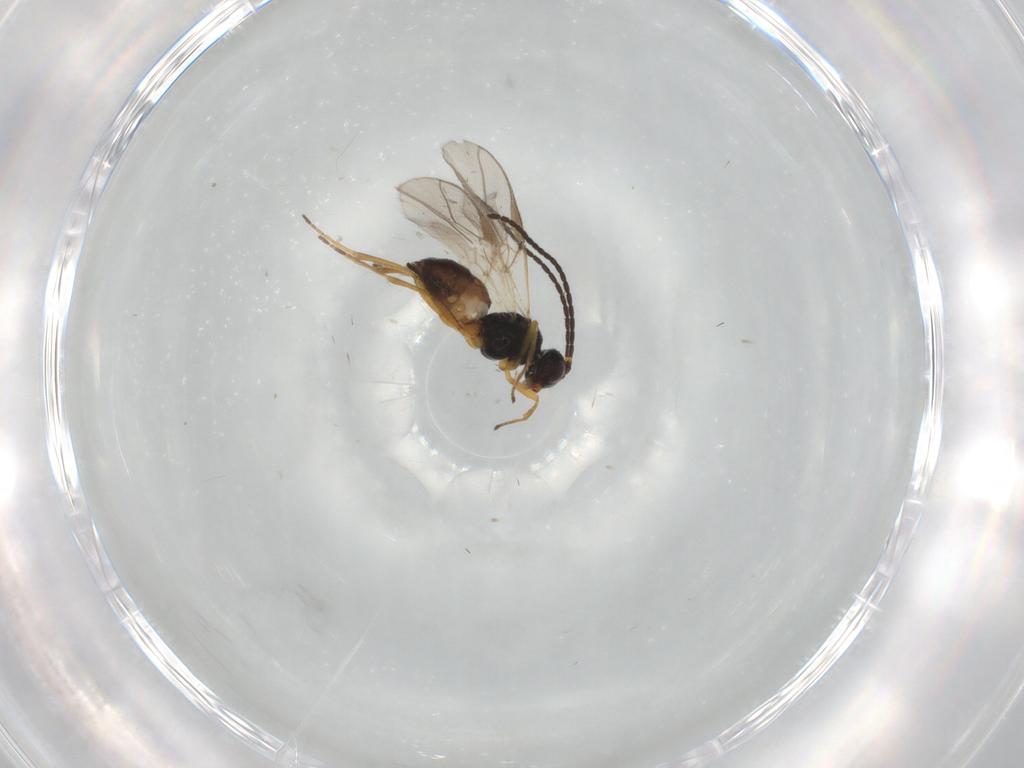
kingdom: Animalia
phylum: Arthropoda
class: Insecta
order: Hymenoptera
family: Braconidae
